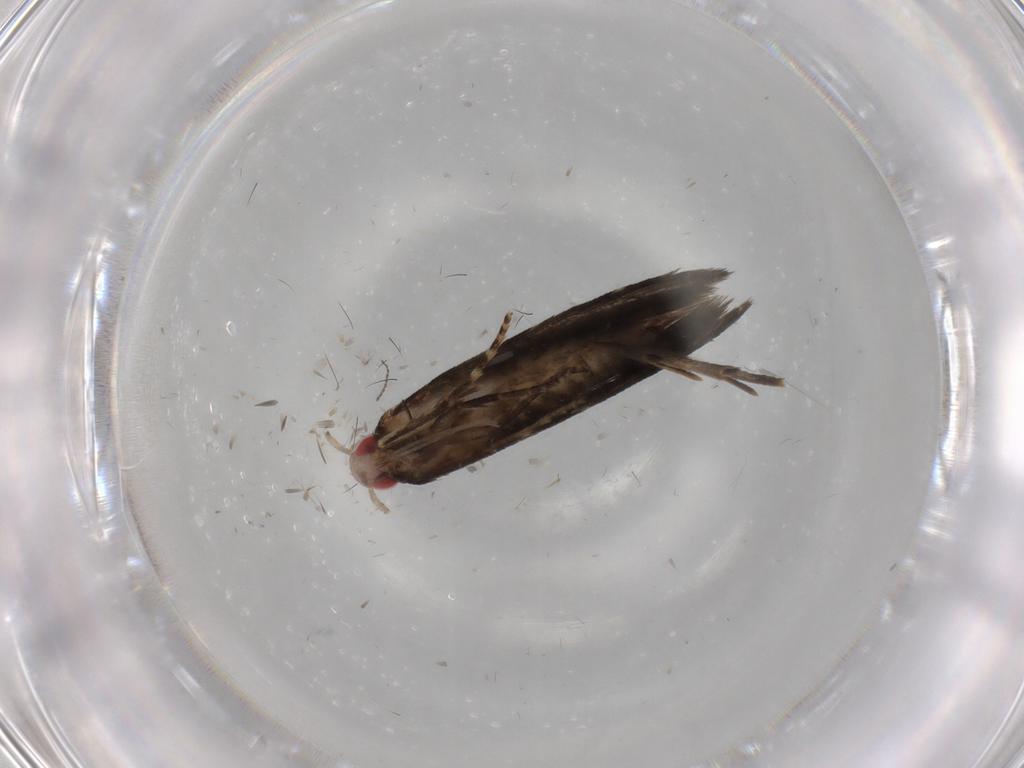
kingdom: Animalia
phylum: Arthropoda
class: Insecta
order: Lepidoptera
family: Gelechiidae
